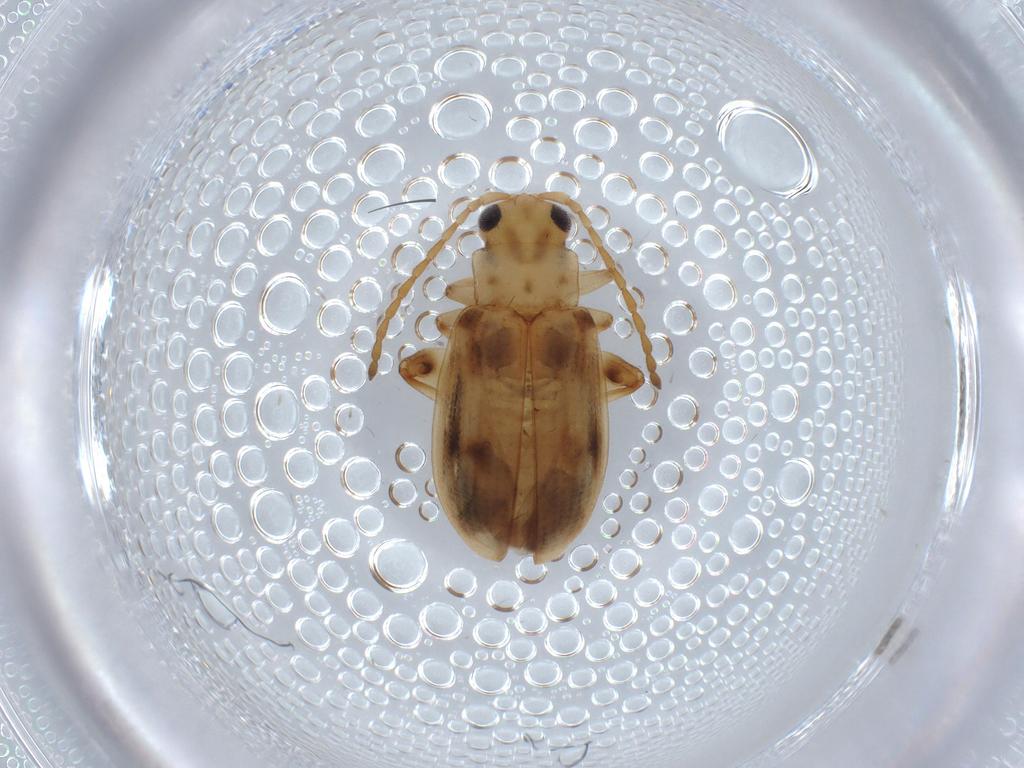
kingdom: Animalia
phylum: Arthropoda
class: Insecta
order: Coleoptera
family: Chrysomelidae
